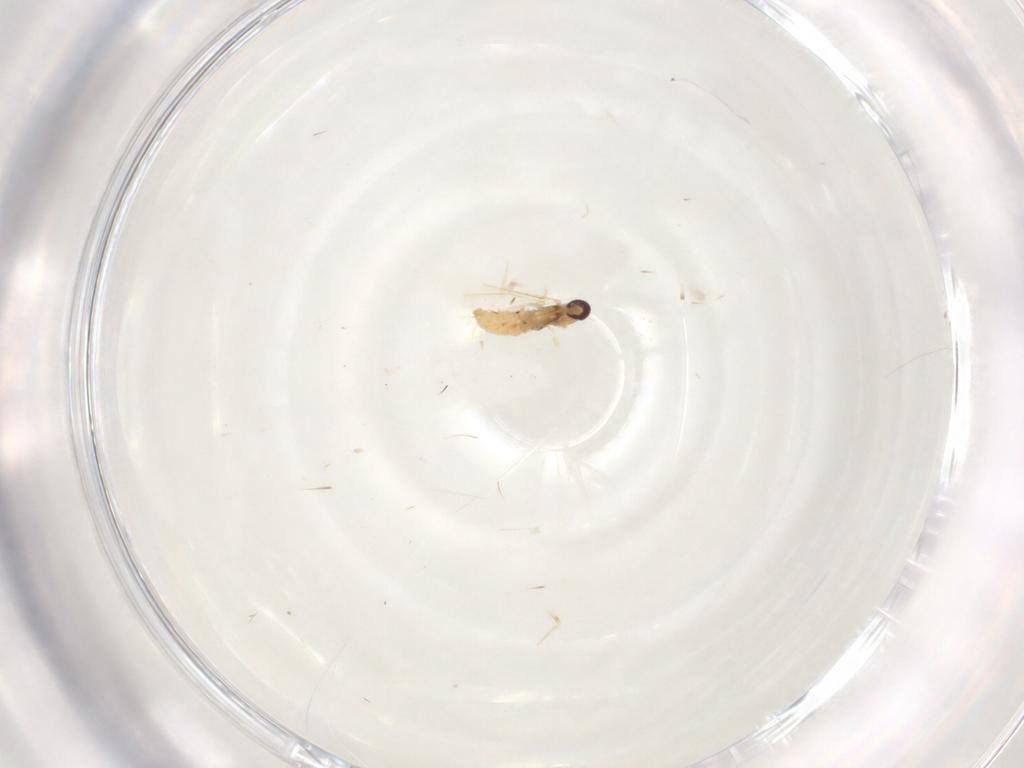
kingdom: Animalia
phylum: Arthropoda
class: Insecta
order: Diptera
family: Cecidomyiidae
